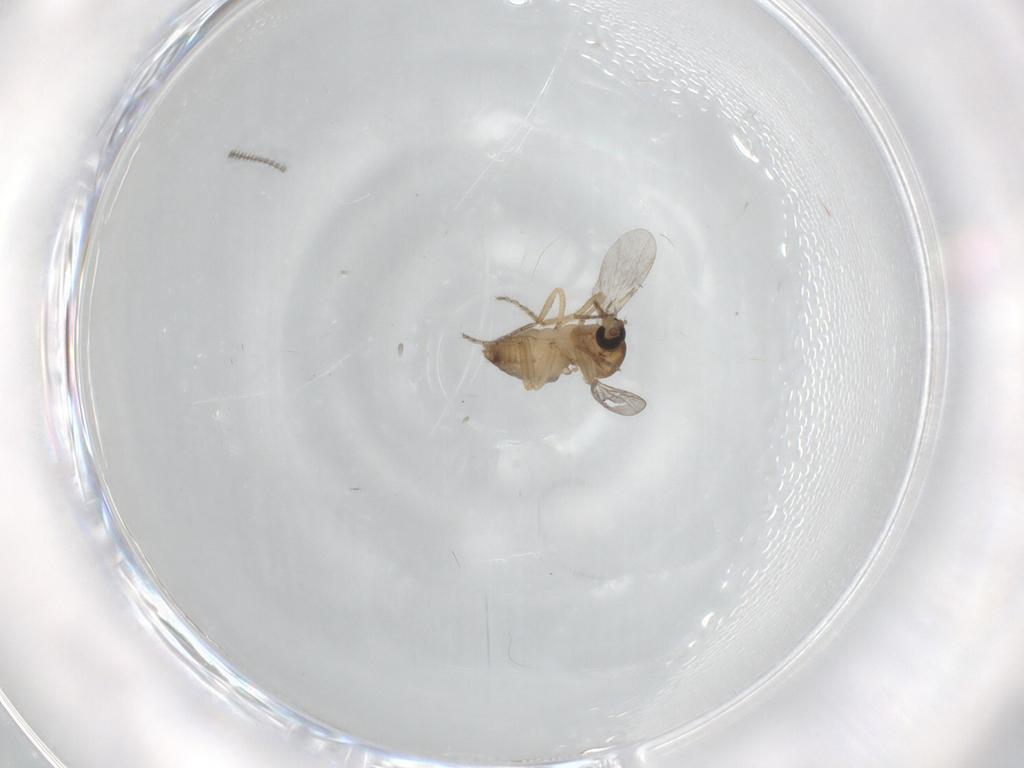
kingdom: Animalia
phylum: Arthropoda
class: Insecta
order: Diptera
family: Ceratopogonidae
